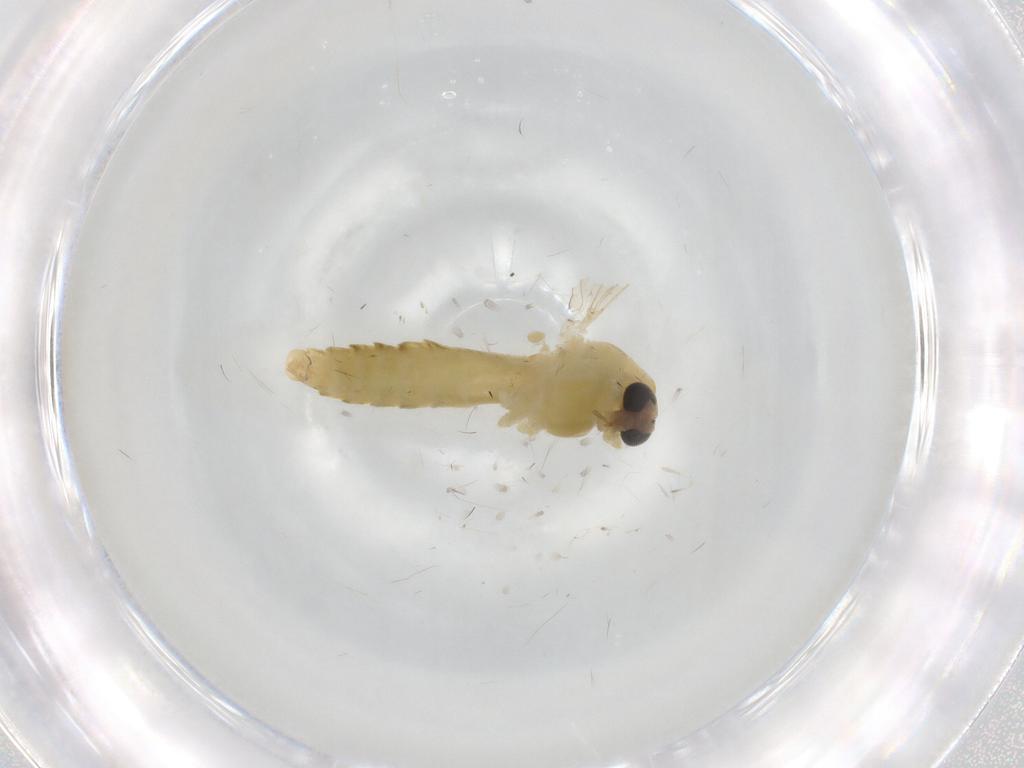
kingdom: Animalia
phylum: Arthropoda
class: Insecta
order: Diptera
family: Chironomidae
